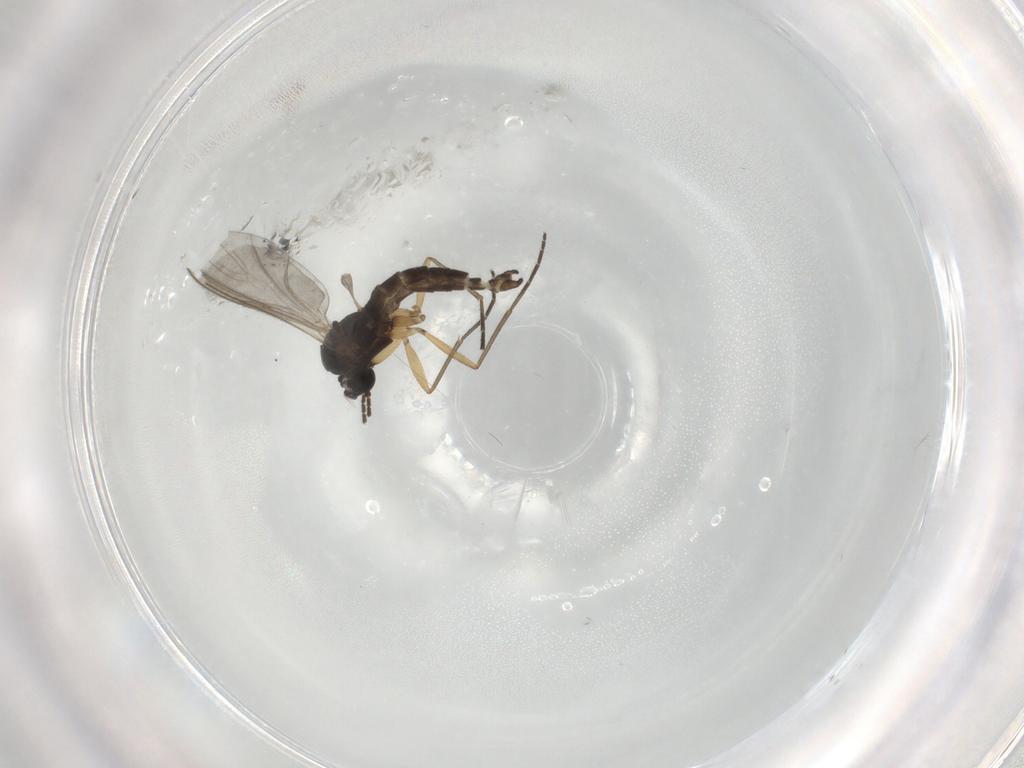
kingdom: Animalia
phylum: Arthropoda
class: Insecta
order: Diptera
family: Sciaridae
